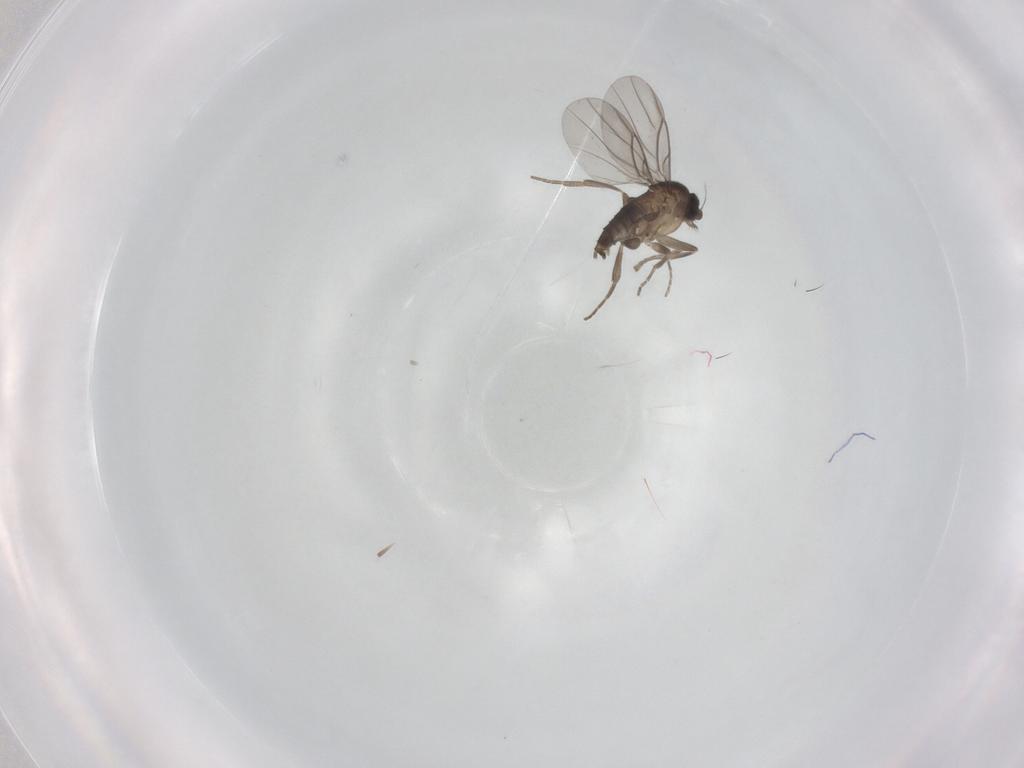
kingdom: Animalia
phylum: Arthropoda
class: Insecta
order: Diptera
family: Phoridae
